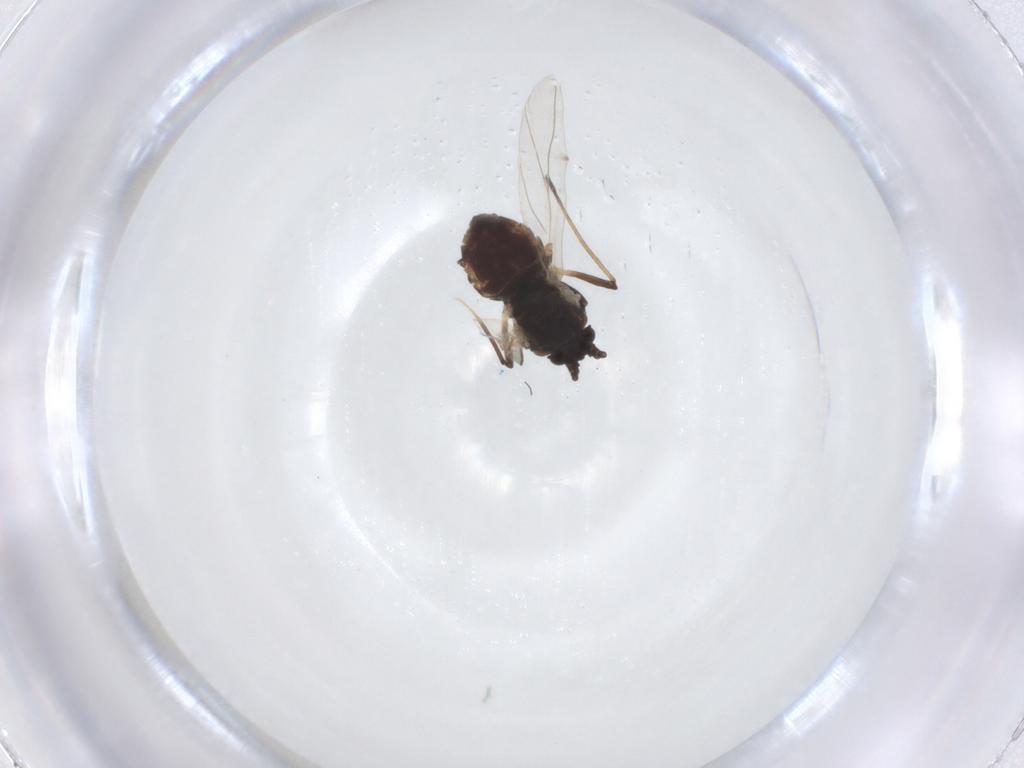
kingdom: Animalia
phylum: Arthropoda
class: Insecta
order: Hemiptera
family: Aphididae
